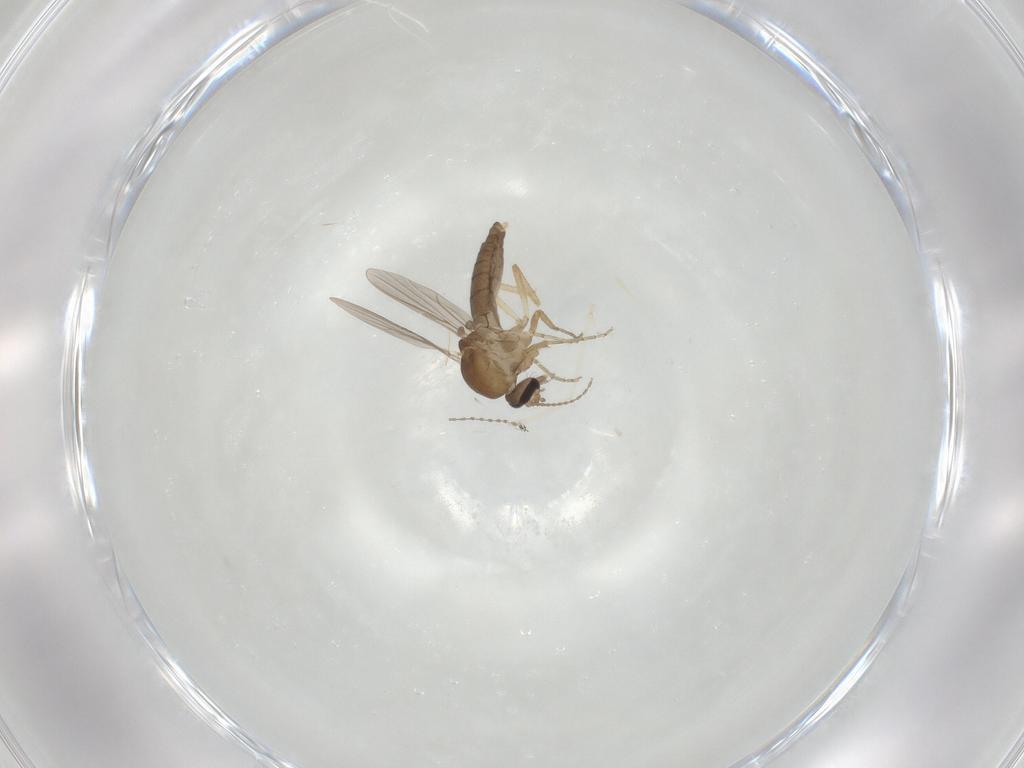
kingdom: Animalia
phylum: Arthropoda
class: Insecta
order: Diptera
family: Ceratopogonidae
